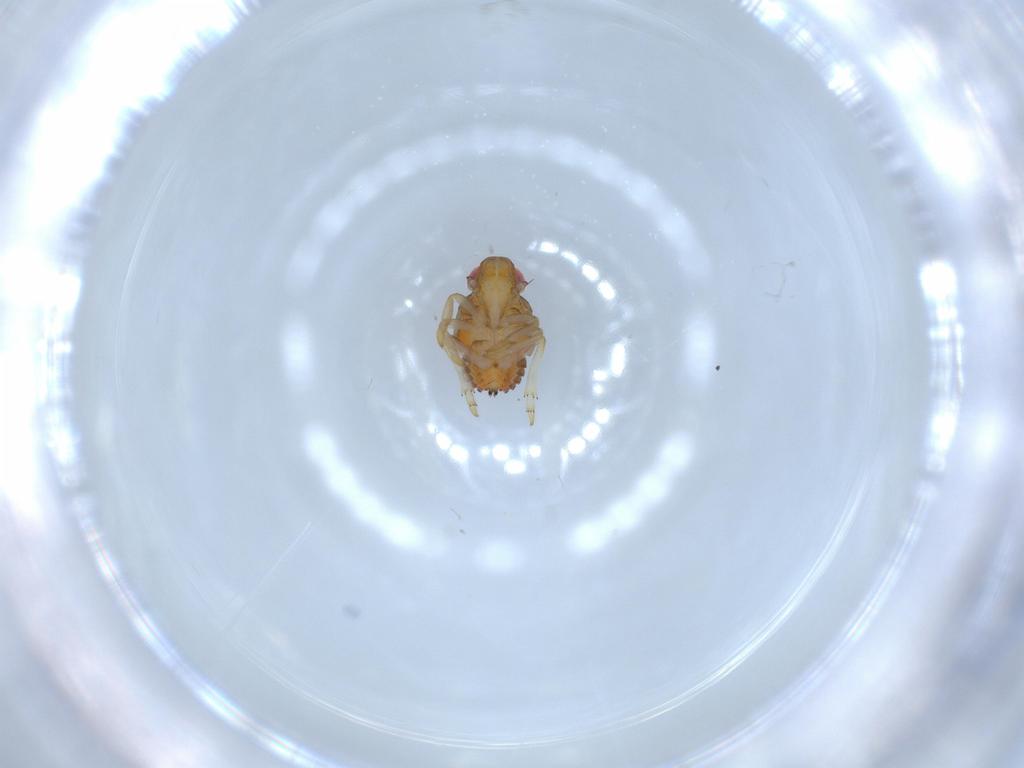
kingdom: Animalia
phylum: Arthropoda
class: Insecta
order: Hemiptera
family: Issidae
